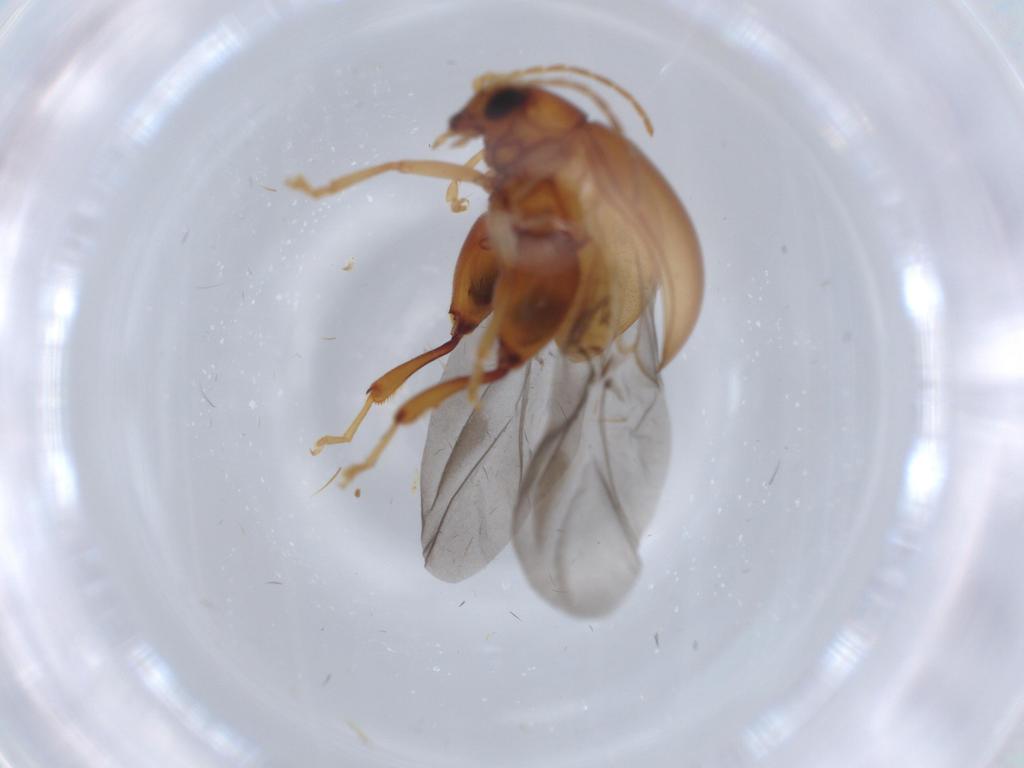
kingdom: Animalia
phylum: Arthropoda
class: Insecta
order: Coleoptera
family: Chrysomelidae
